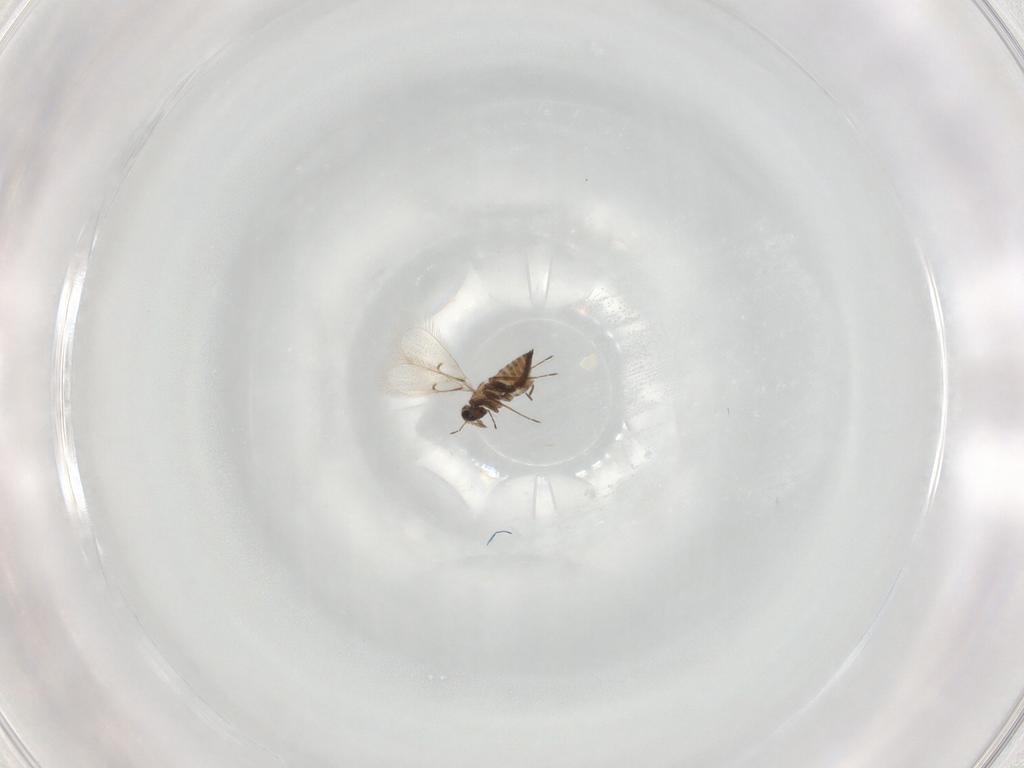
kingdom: Animalia
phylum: Arthropoda
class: Insecta
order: Hymenoptera
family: Trichogrammatidae
